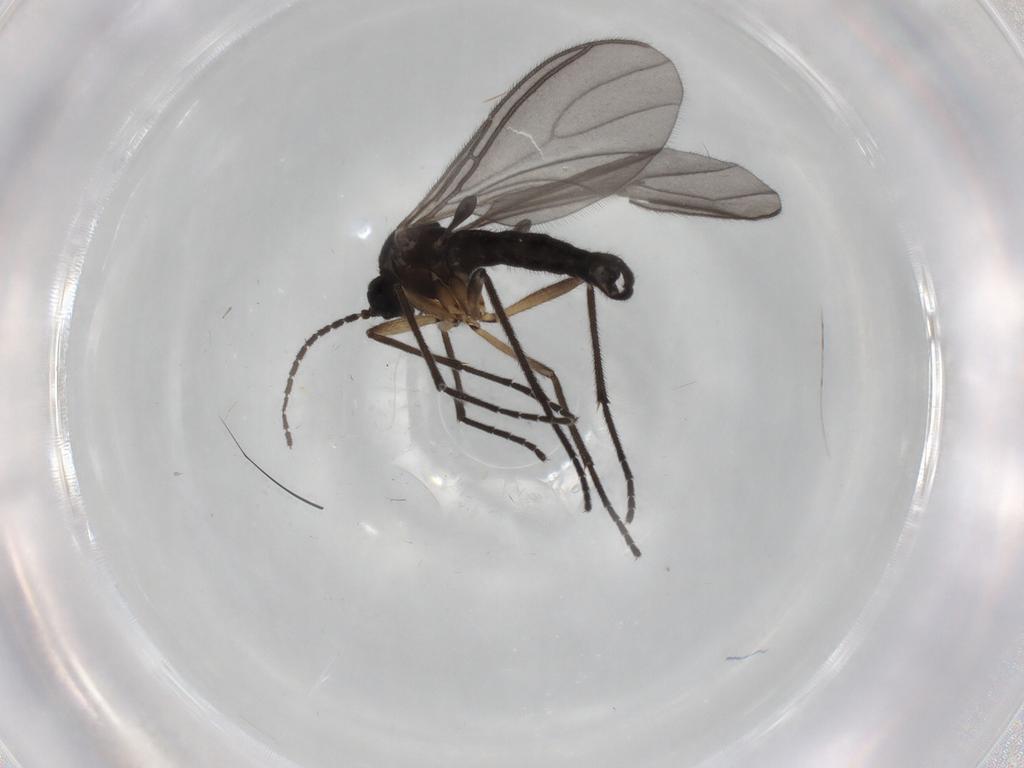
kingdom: Animalia
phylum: Arthropoda
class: Insecta
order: Diptera
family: Sciaridae
